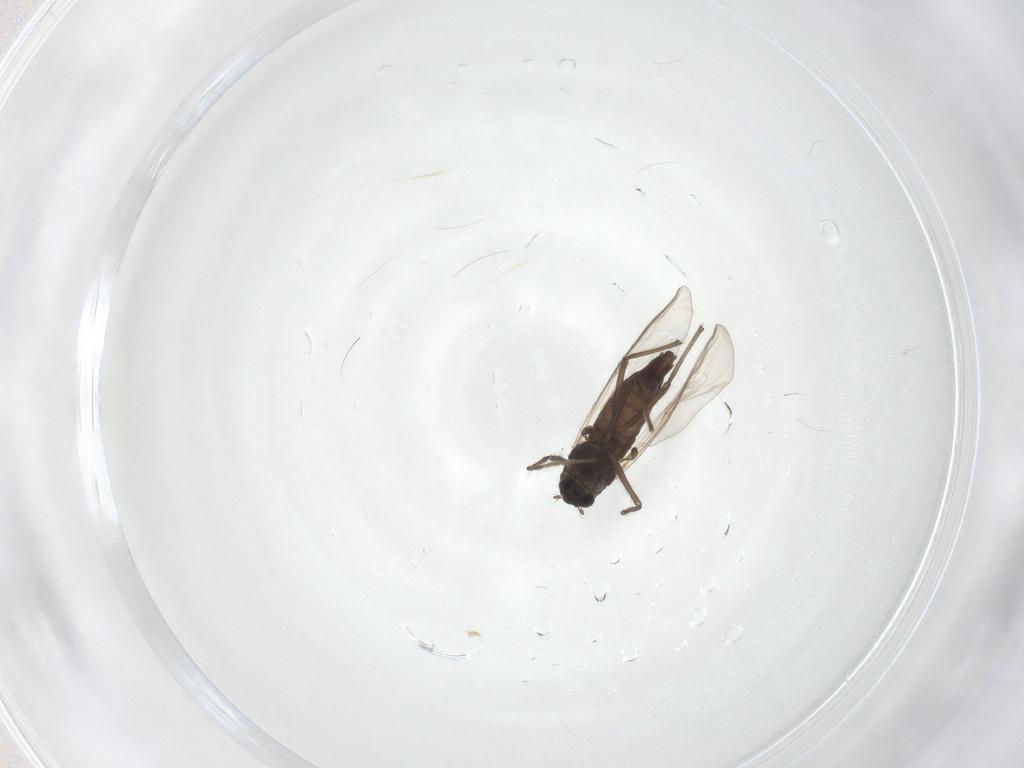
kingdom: Animalia
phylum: Arthropoda
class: Insecta
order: Diptera
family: Chironomidae
